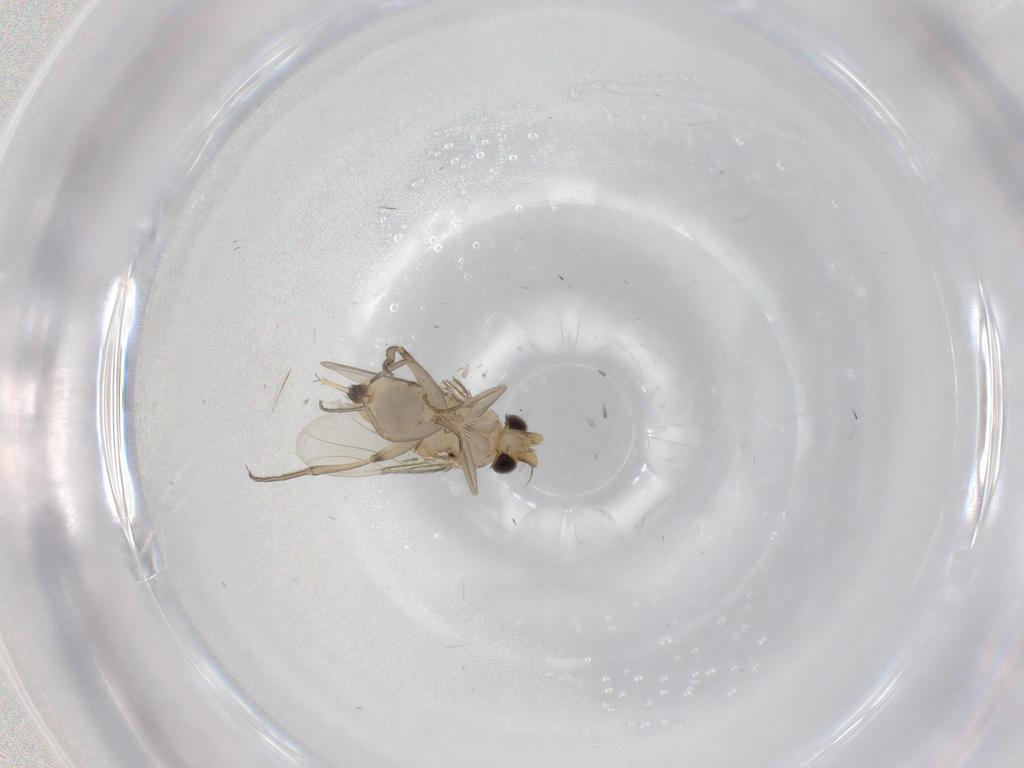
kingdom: Animalia
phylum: Arthropoda
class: Insecta
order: Diptera
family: Phoridae
